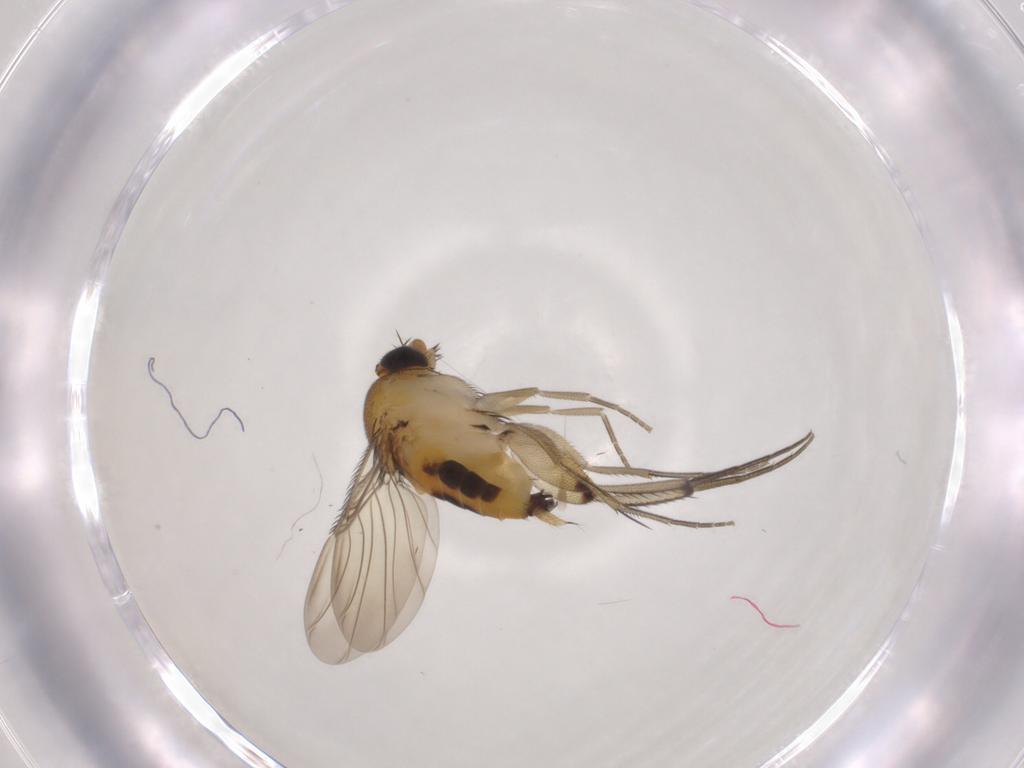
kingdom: Animalia
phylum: Arthropoda
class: Insecta
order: Diptera
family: Phoridae
